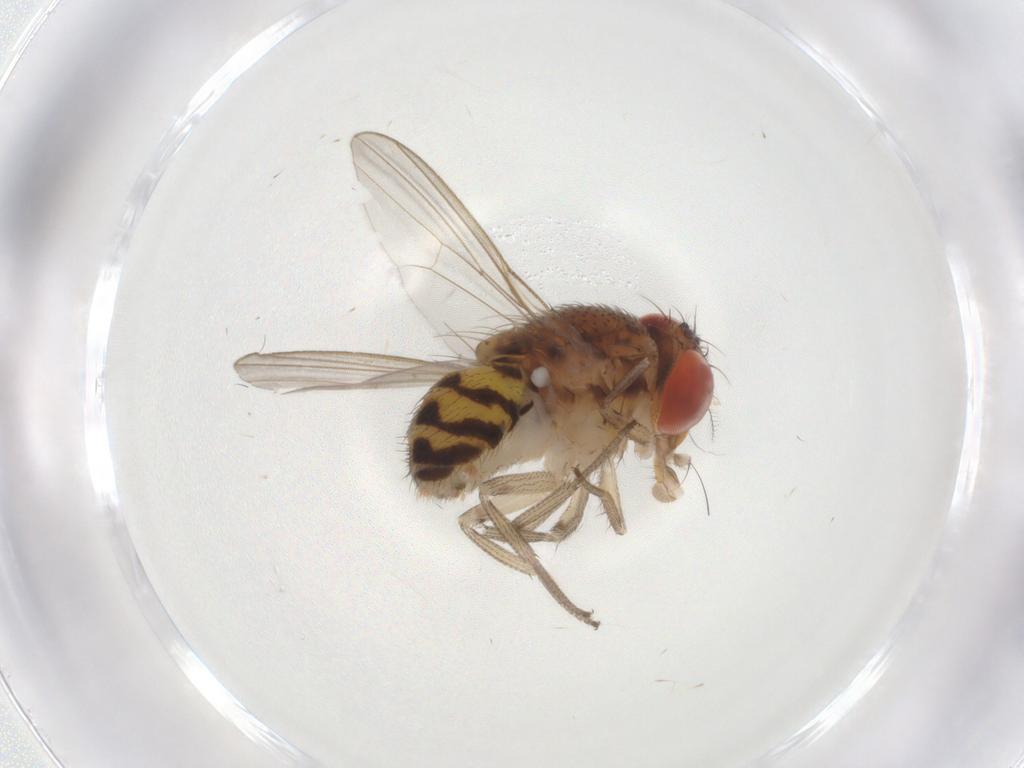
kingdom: Animalia
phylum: Arthropoda
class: Insecta
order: Diptera
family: Drosophilidae
